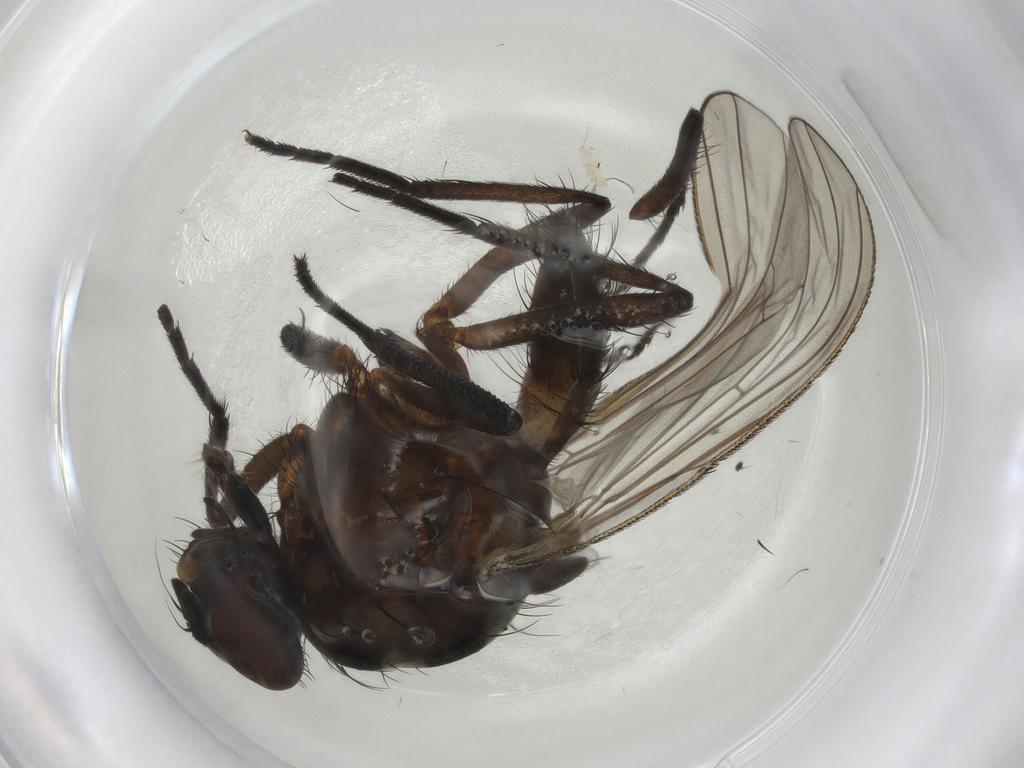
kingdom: Animalia
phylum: Arthropoda
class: Insecta
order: Diptera
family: Anthomyiidae
